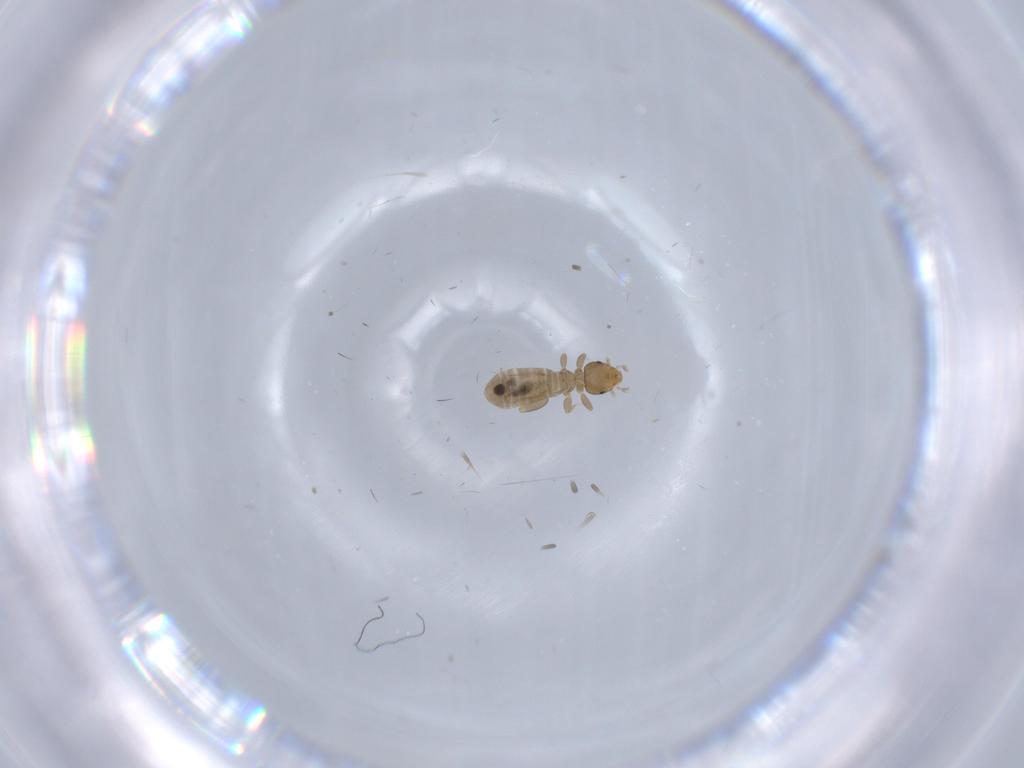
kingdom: Animalia
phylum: Arthropoda
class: Insecta
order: Psocodea
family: Liposcelididae
